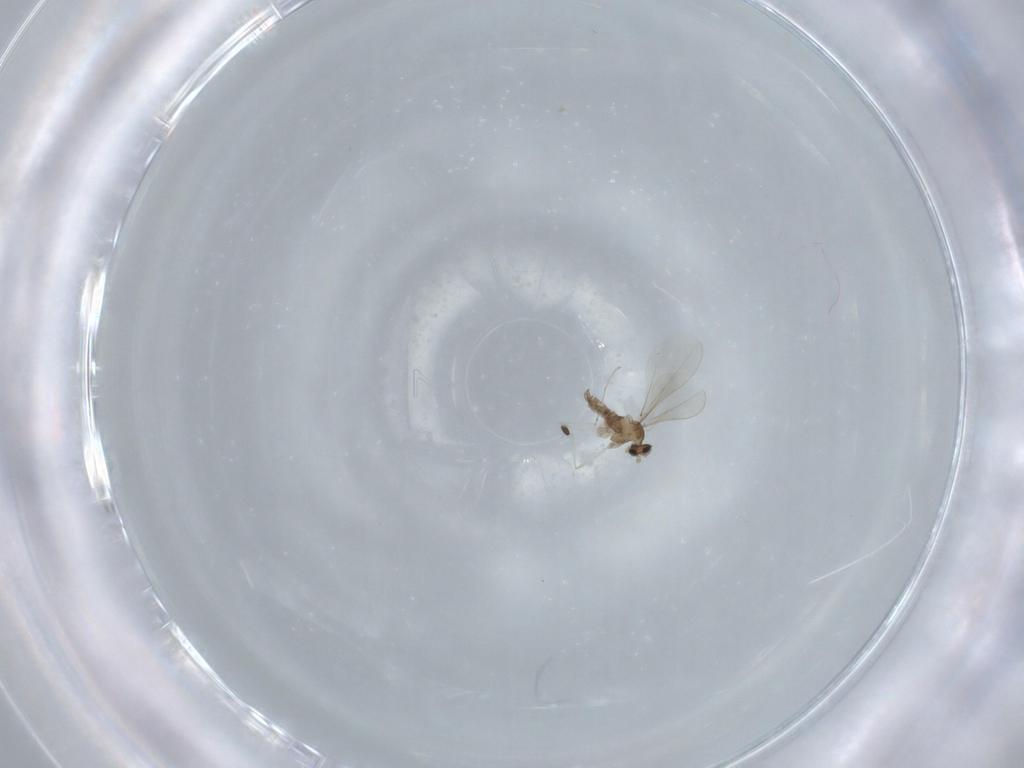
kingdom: Animalia
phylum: Arthropoda
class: Insecta
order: Diptera
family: Cecidomyiidae
